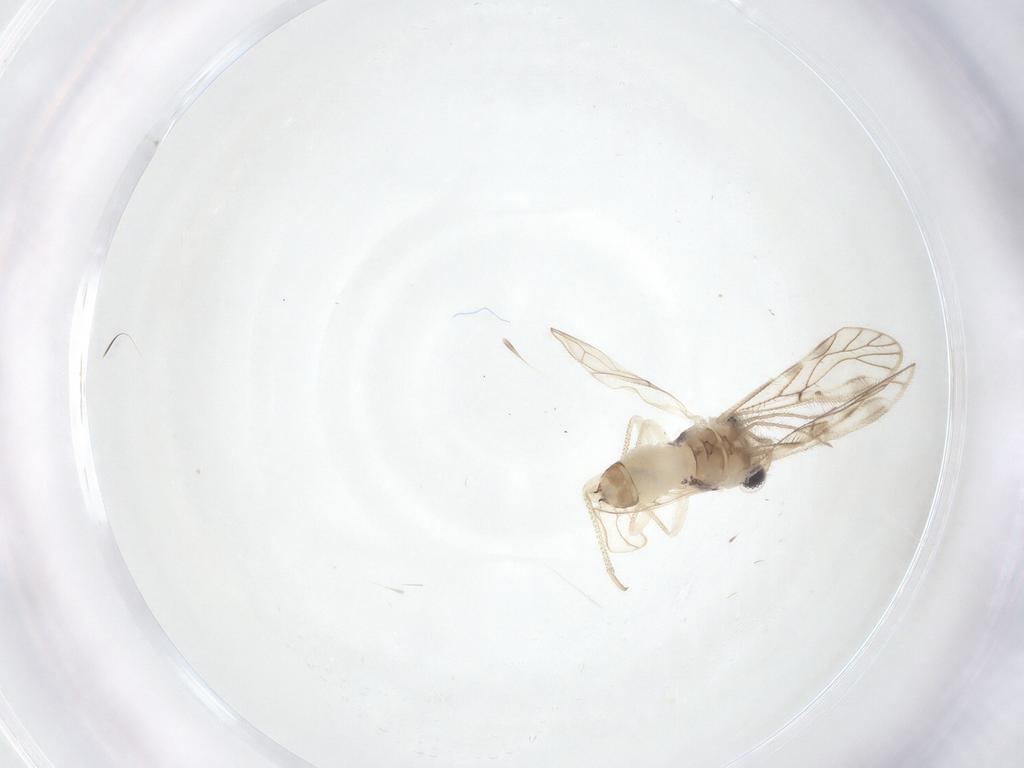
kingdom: Animalia
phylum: Arthropoda
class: Insecta
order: Psocodea
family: Caeciliusidae
